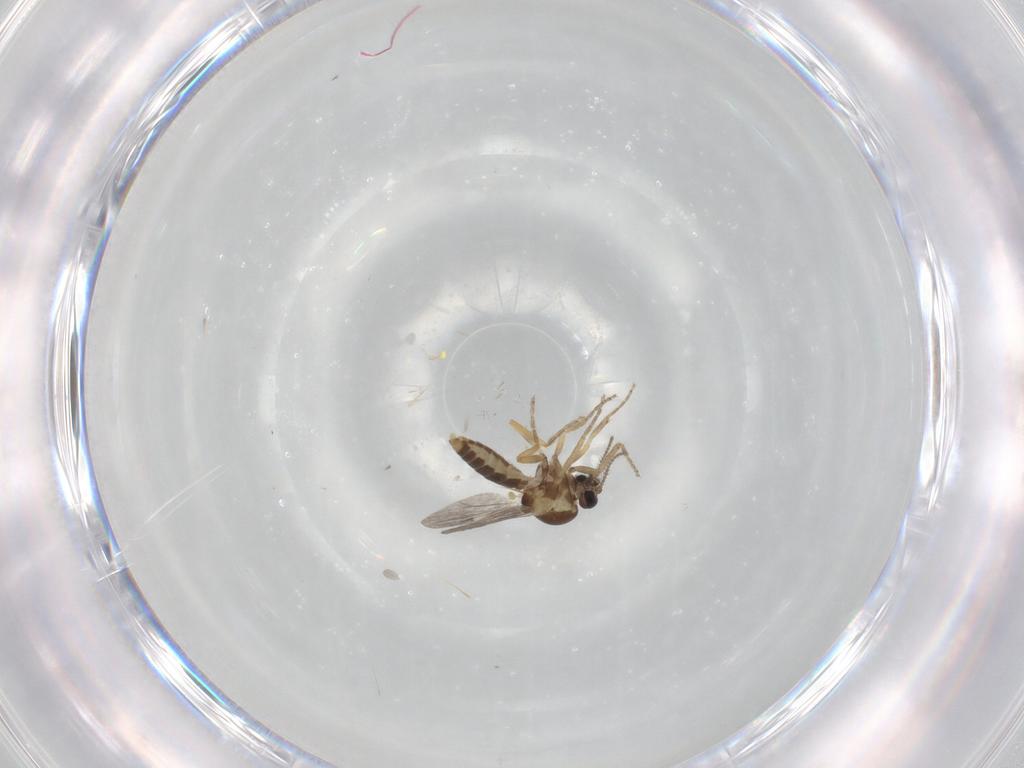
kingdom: Animalia
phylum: Arthropoda
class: Insecta
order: Diptera
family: Ceratopogonidae
